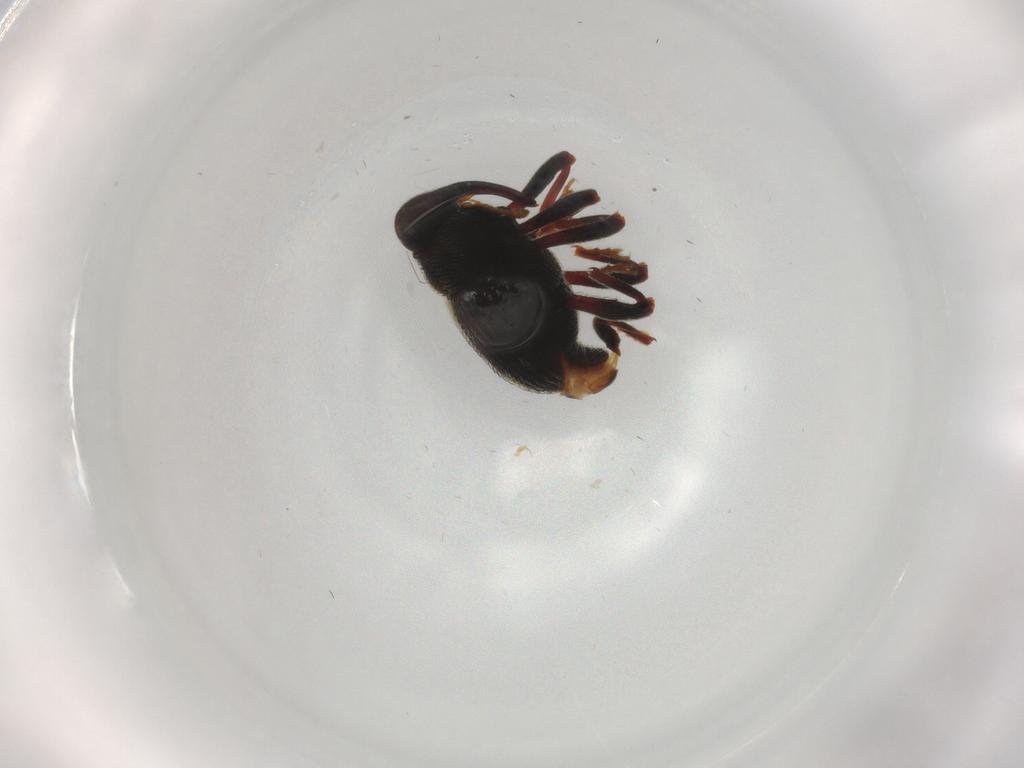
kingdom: Animalia
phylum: Arthropoda
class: Insecta
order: Coleoptera
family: Curculionidae
